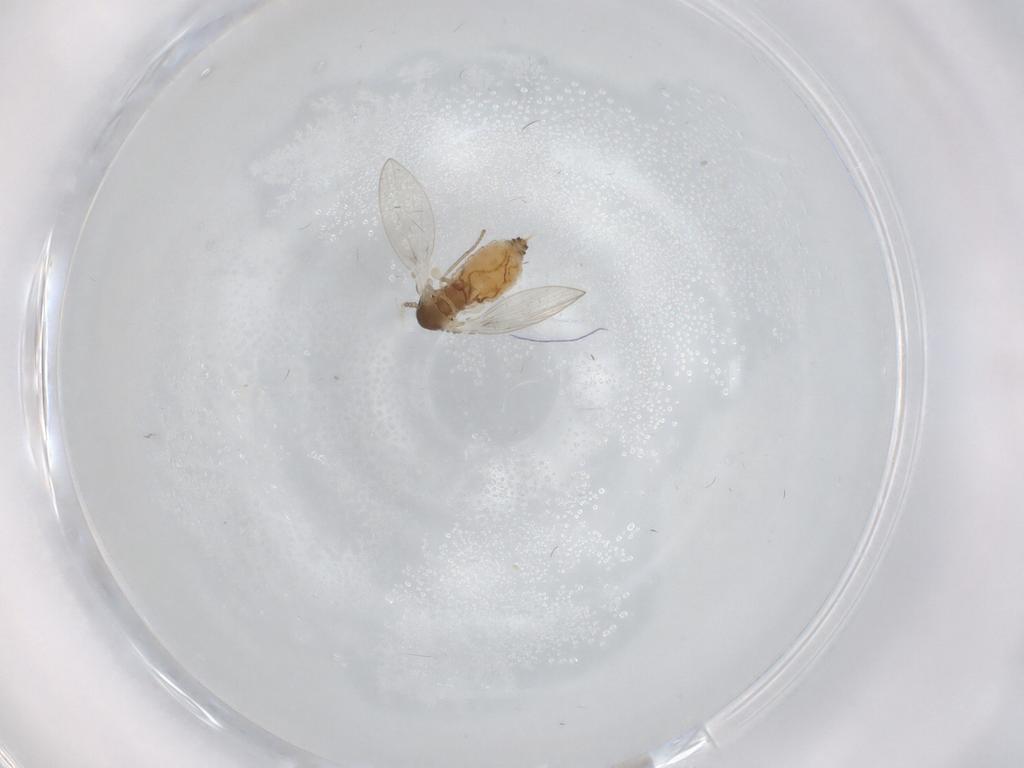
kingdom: Animalia
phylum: Arthropoda
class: Insecta
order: Diptera
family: Psychodidae
